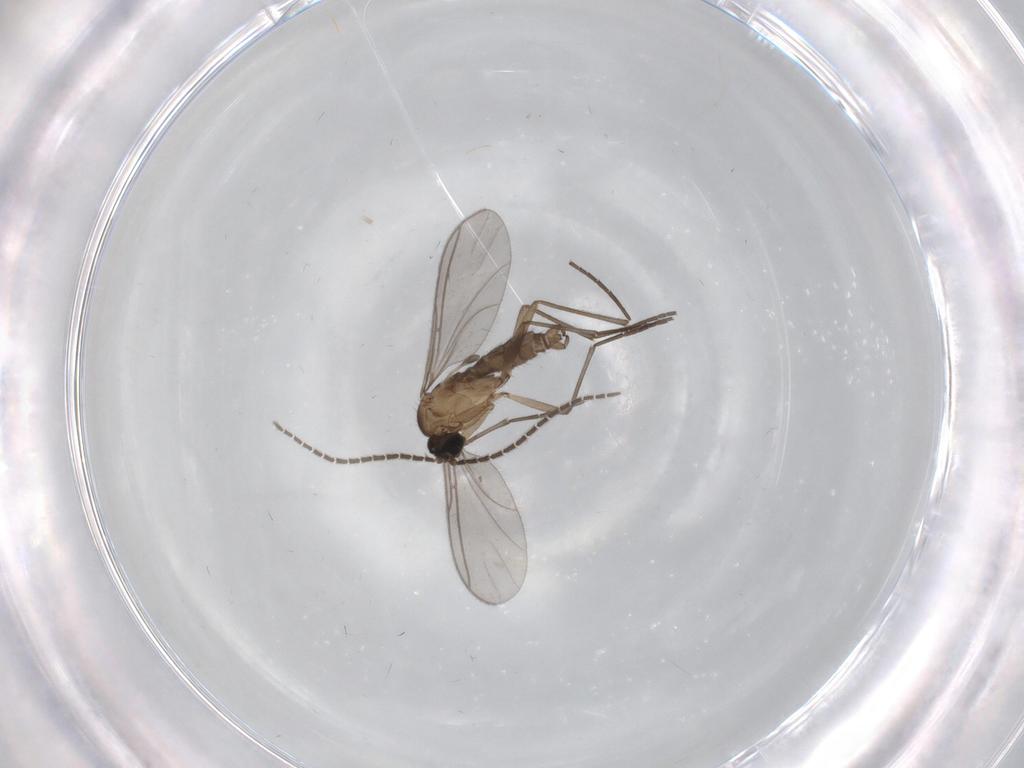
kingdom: Animalia
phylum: Arthropoda
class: Insecta
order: Diptera
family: Sciaridae
